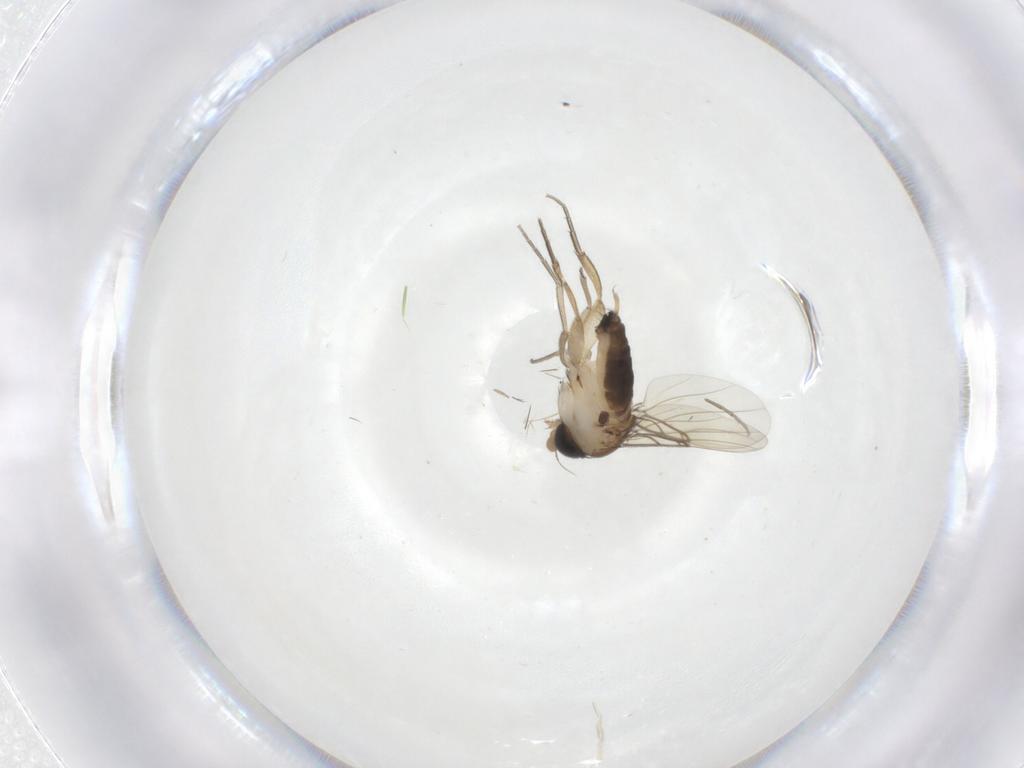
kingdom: Animalia
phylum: Arthropoda
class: Insecta
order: Diptera
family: Phoridae
